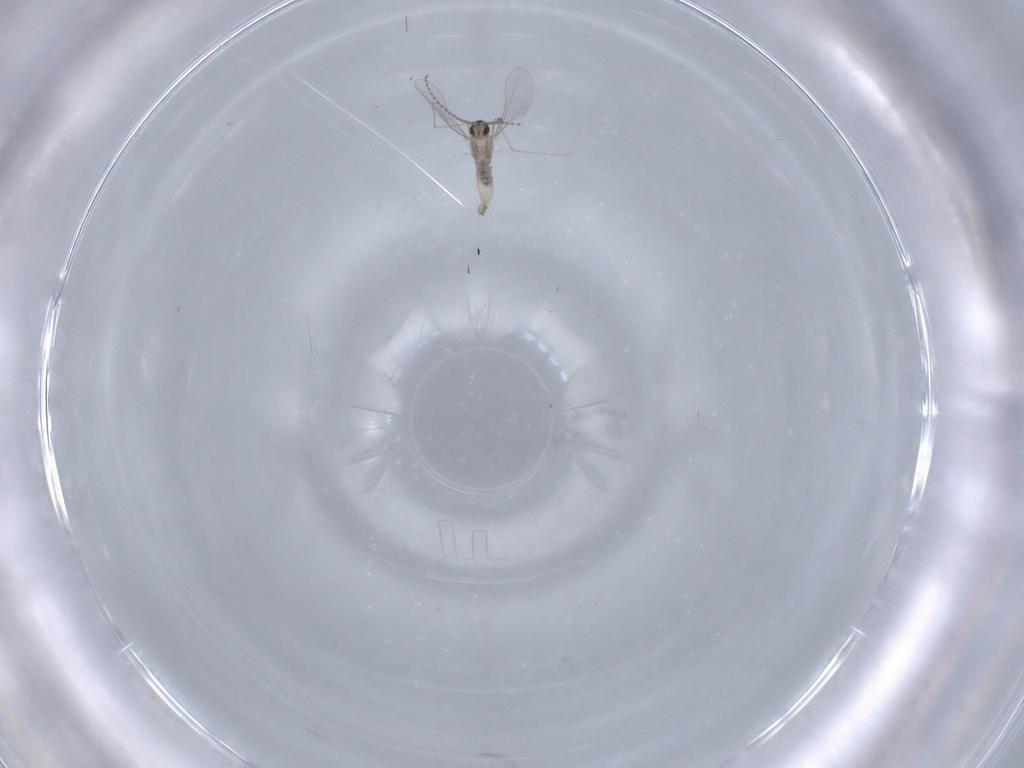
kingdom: Animalia
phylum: Arthropoda
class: Insecta
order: Diptera
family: Cecidomyiidae
